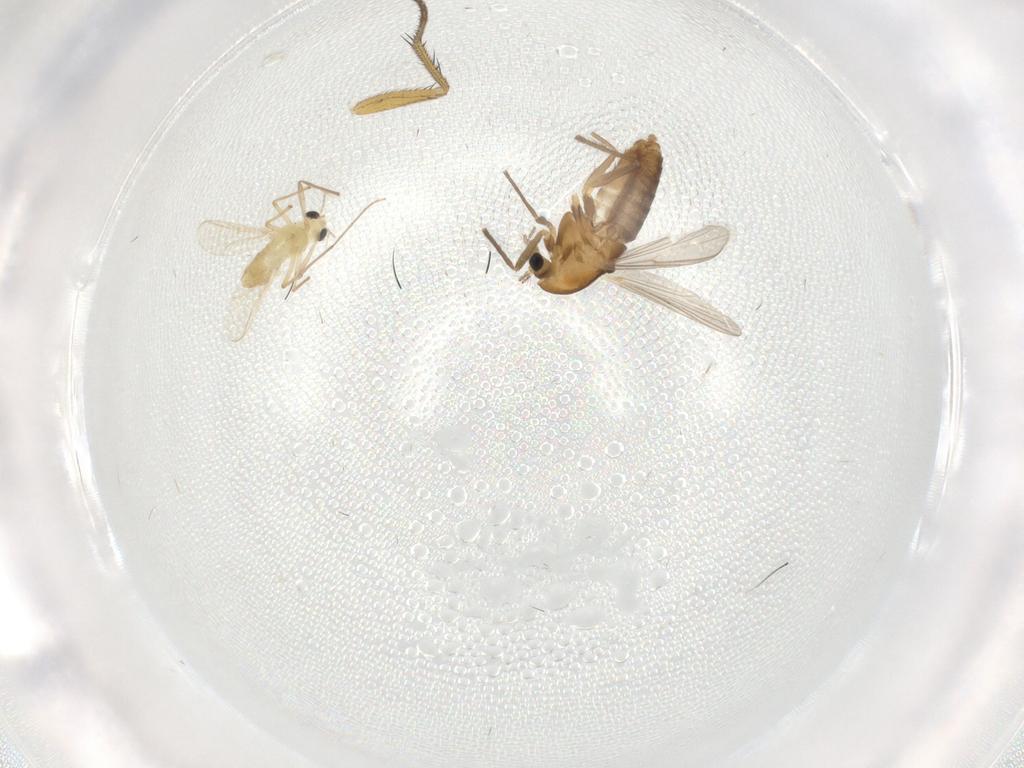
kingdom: Animalia
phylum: Arthropoda
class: Insecta
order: Diptera
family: Chironomidae
